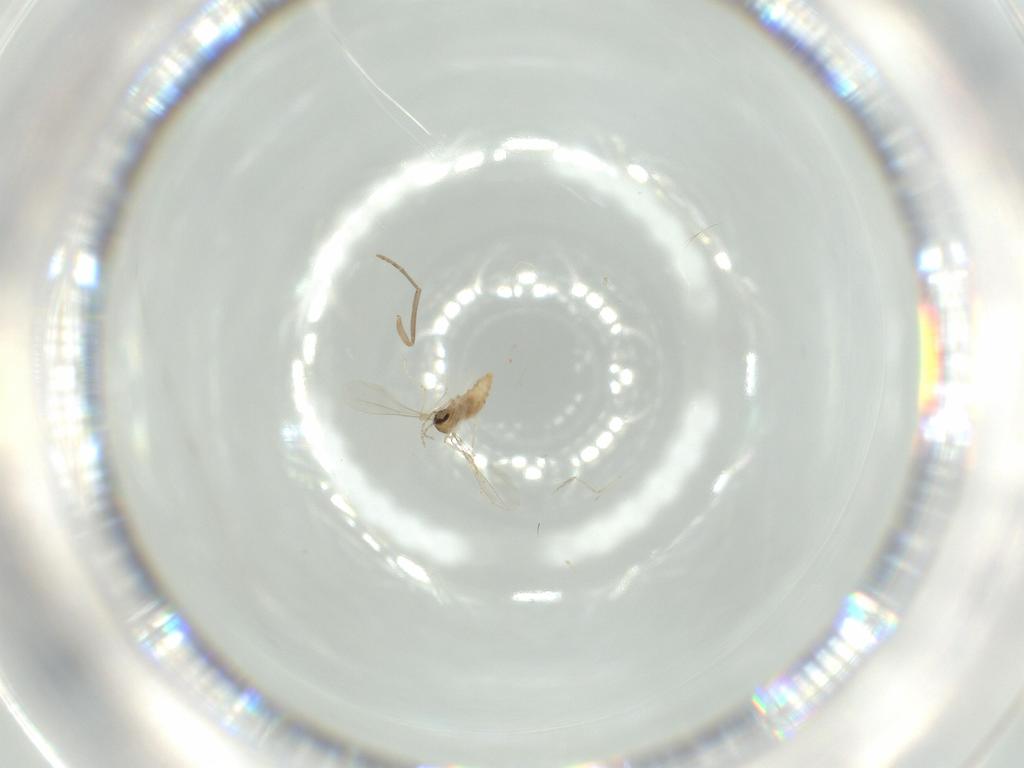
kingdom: Animalia
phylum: Arthropoda
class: Insecta
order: Diptera
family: Cecidomyiidae
